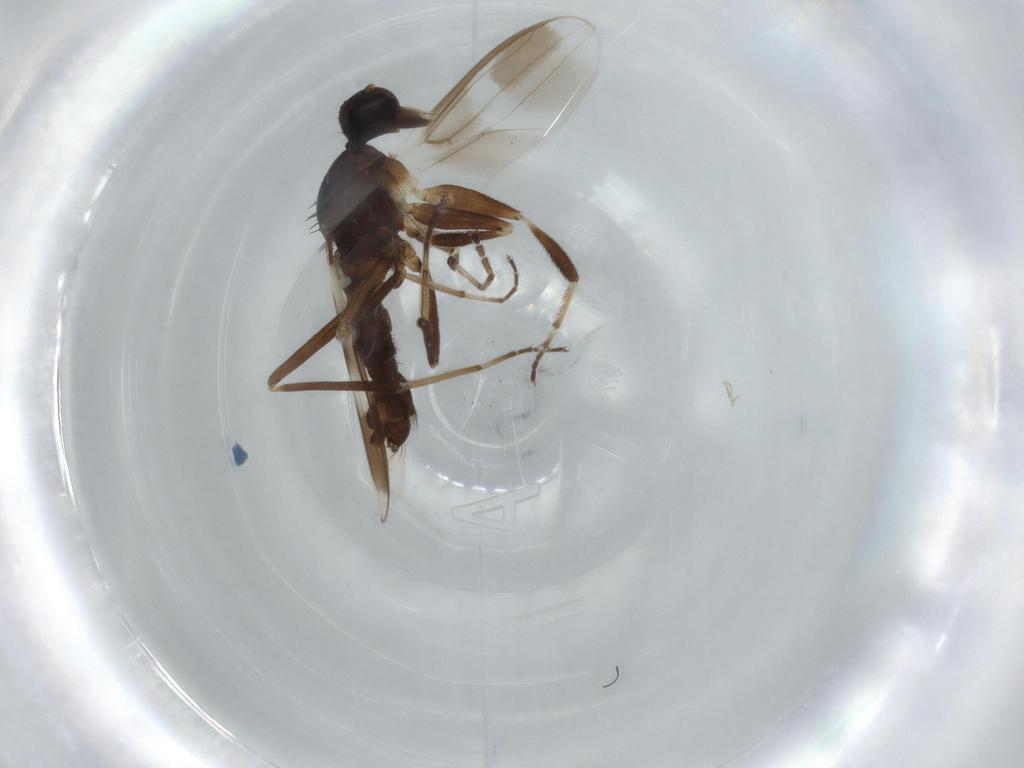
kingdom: Animalia
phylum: Arthropoda
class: Insecta
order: Diptera
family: Hybotidae
